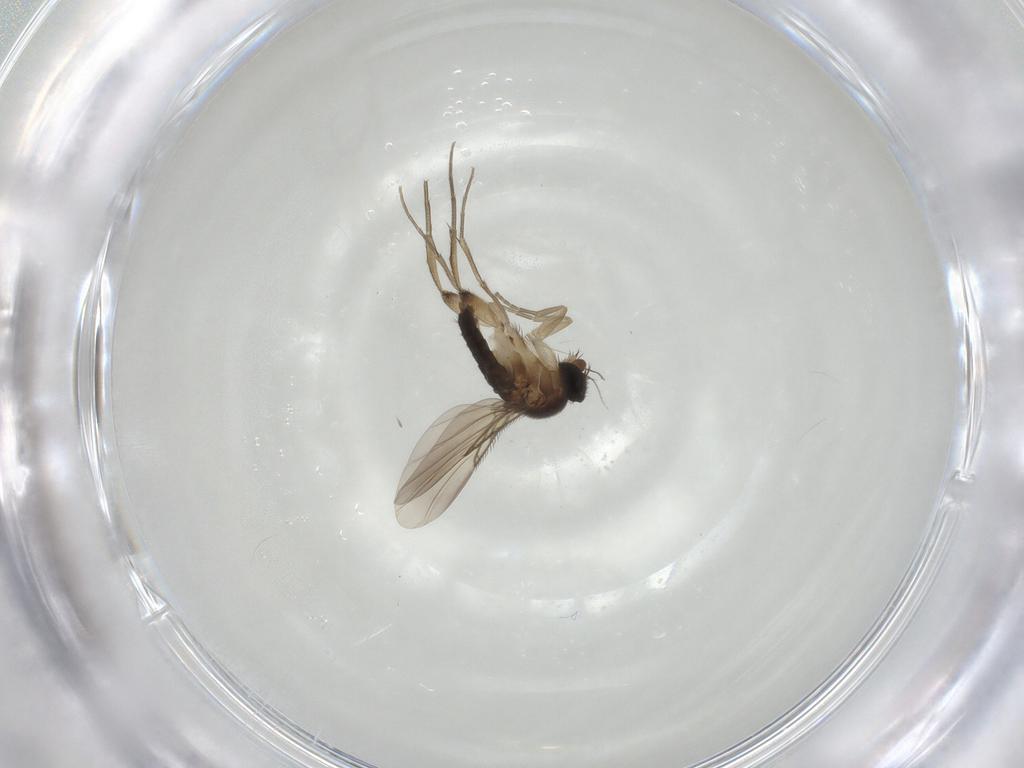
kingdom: Animalia
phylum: Arthropoda
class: Insecta
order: Diptera
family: Phoridae
